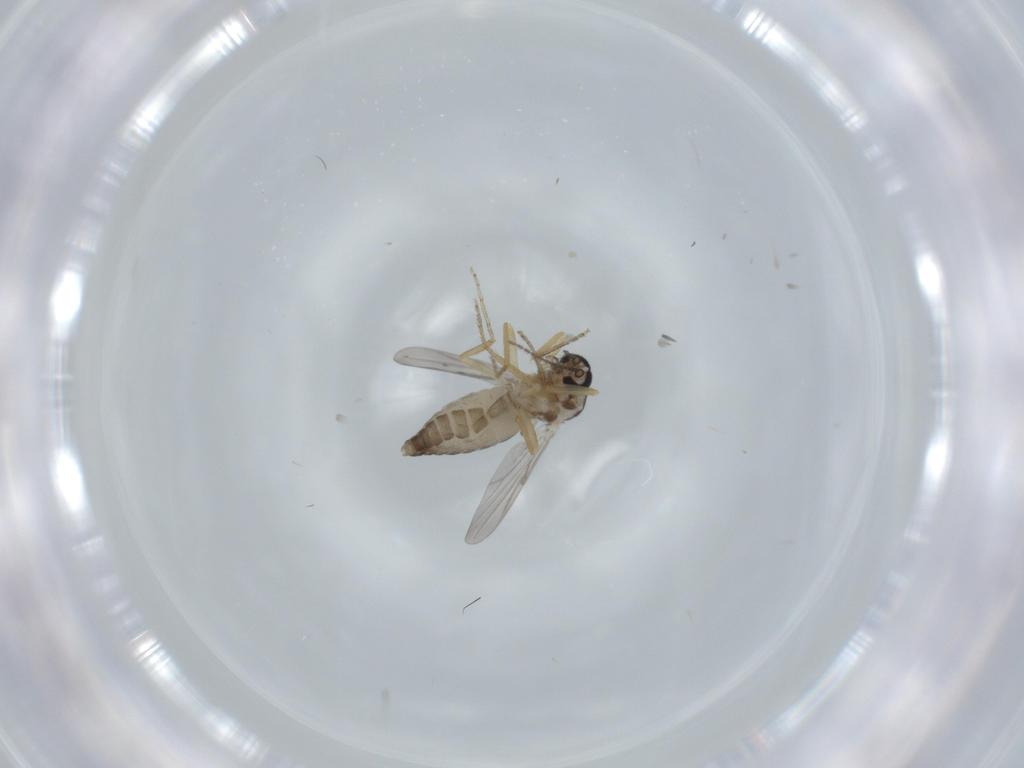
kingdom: Animalia
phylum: Arthropoda
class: Insecta
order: Diptera
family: Ceratopogonidae
